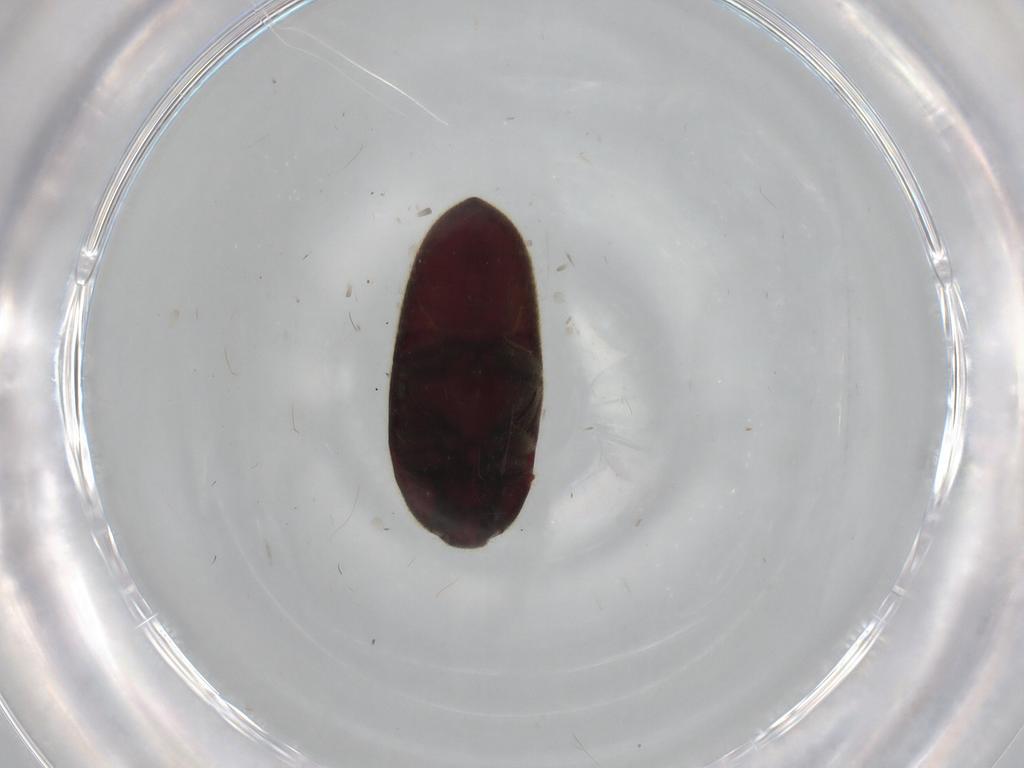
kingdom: Animalia
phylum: Arthropoda
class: Insecta
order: Coleoptera
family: Throscidae
